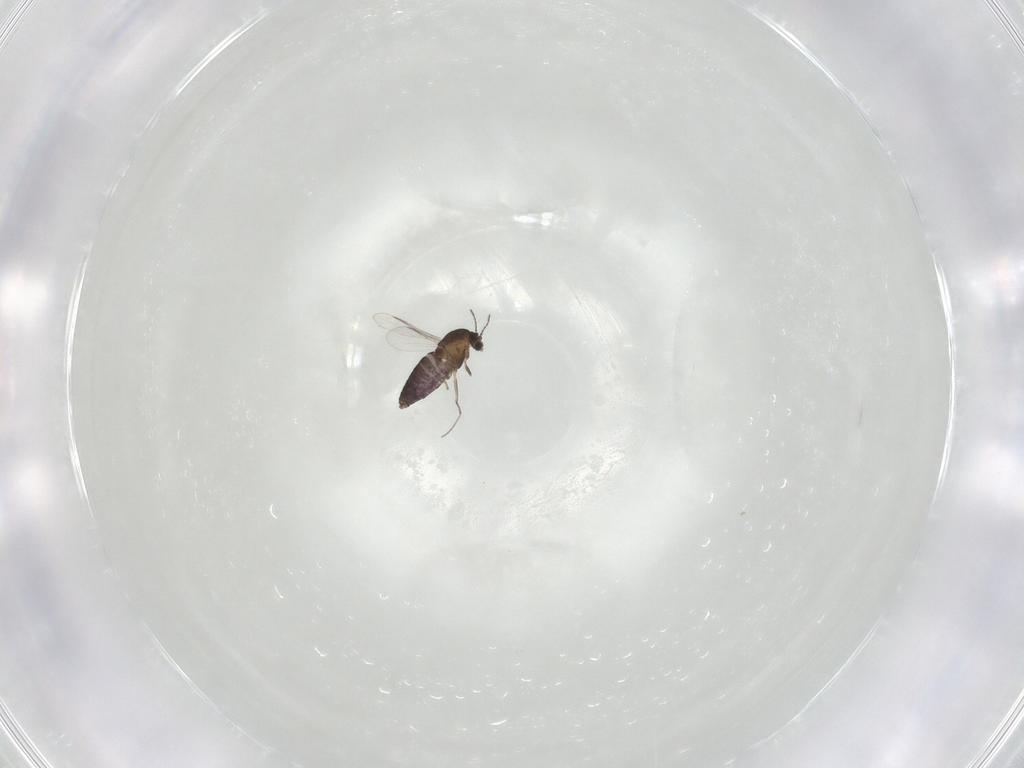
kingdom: Animalia
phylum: Arthropoda
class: Insecta
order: Diptera
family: Chironomidae
